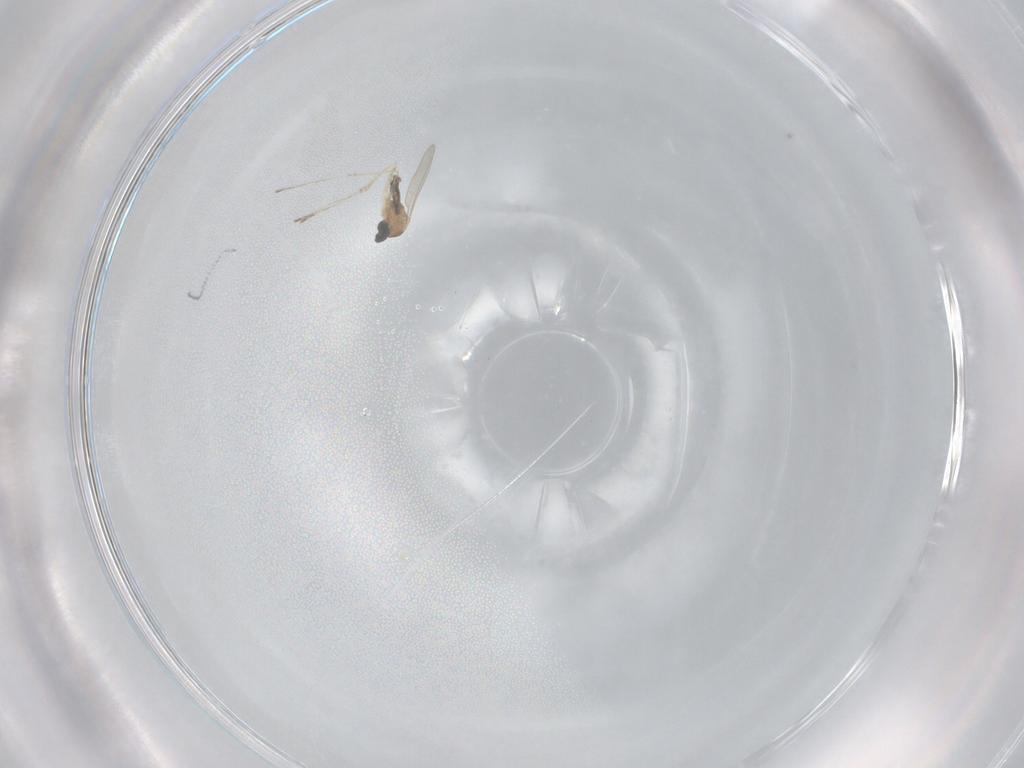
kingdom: Animalia
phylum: Arthropoda
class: Insecta
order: Diptera
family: Cecidomyiidae
